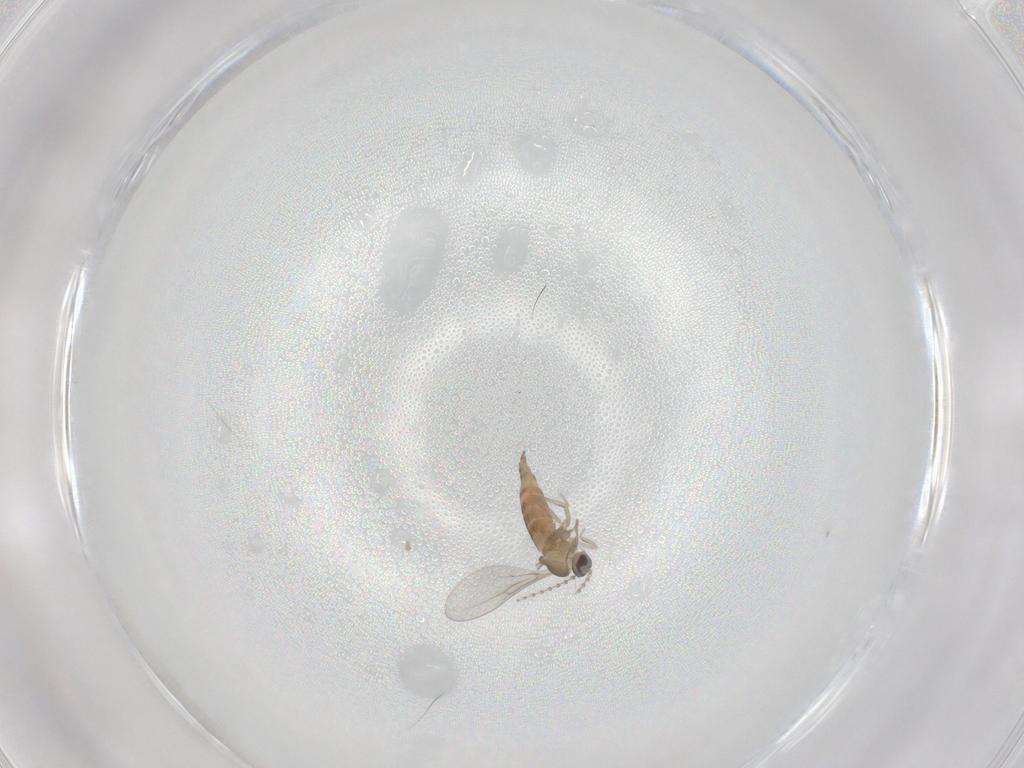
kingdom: Animalia
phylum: Arthropoda
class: Insecta
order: Diptera
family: Cecidomyiidae
